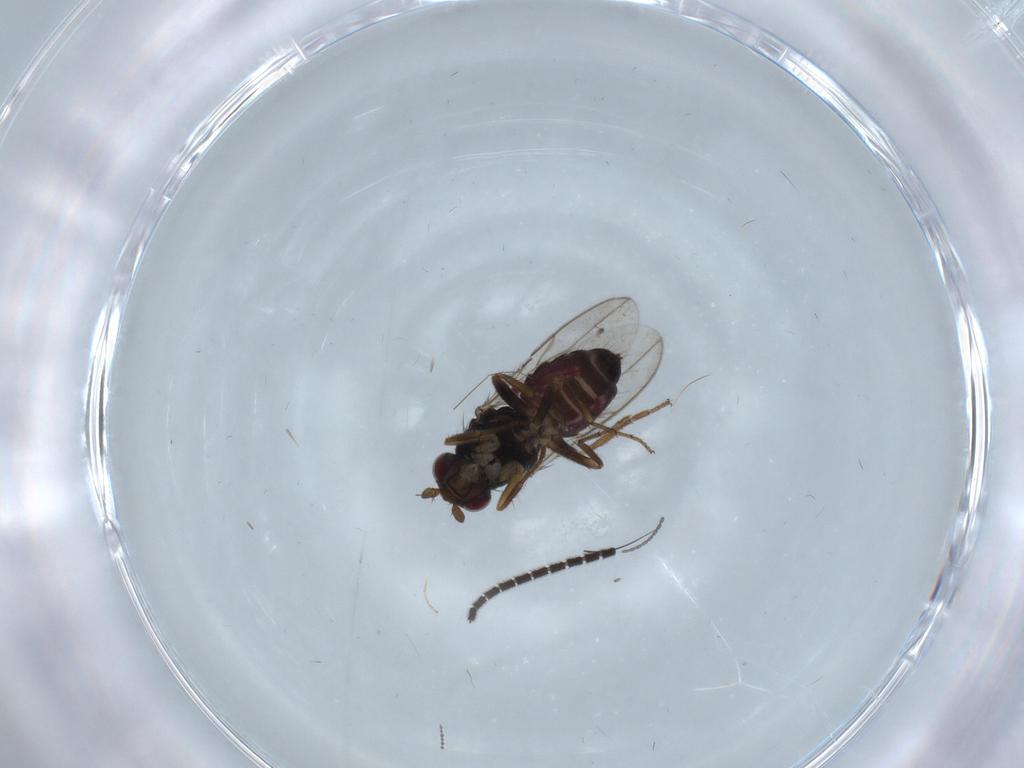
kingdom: Animalia
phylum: Arthropoda
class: Insecta
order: Diptera
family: Sphaeroceridae
